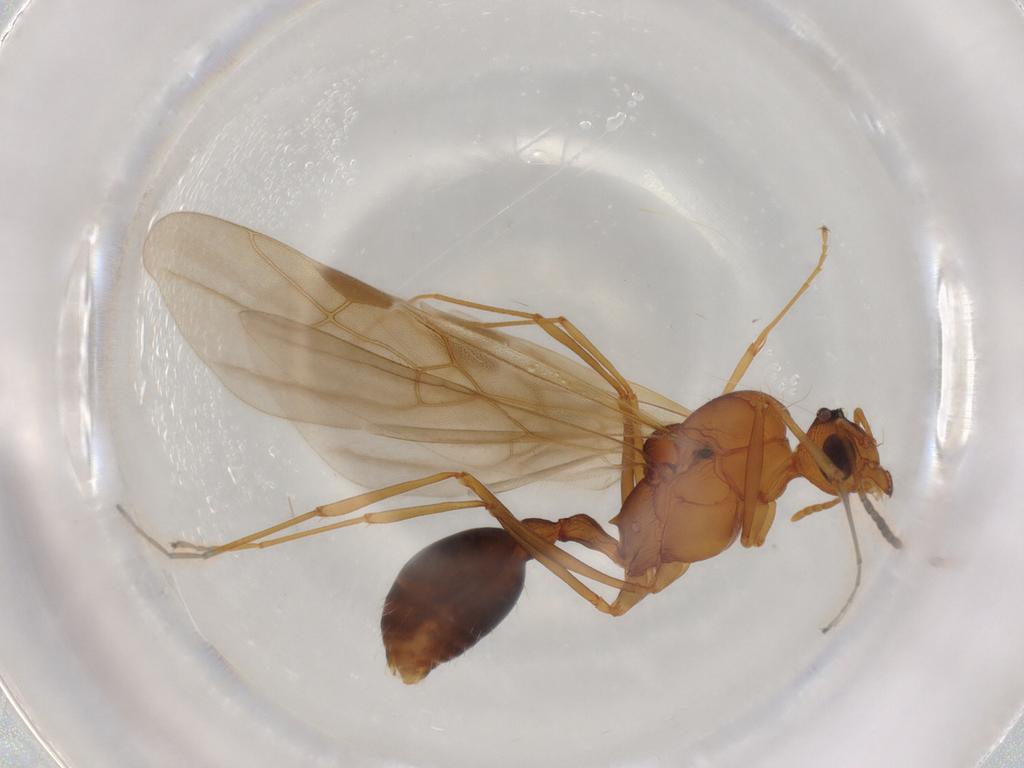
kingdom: Animalia
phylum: Arthropoda
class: Insecta
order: Hymenoptera
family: Formicidae
